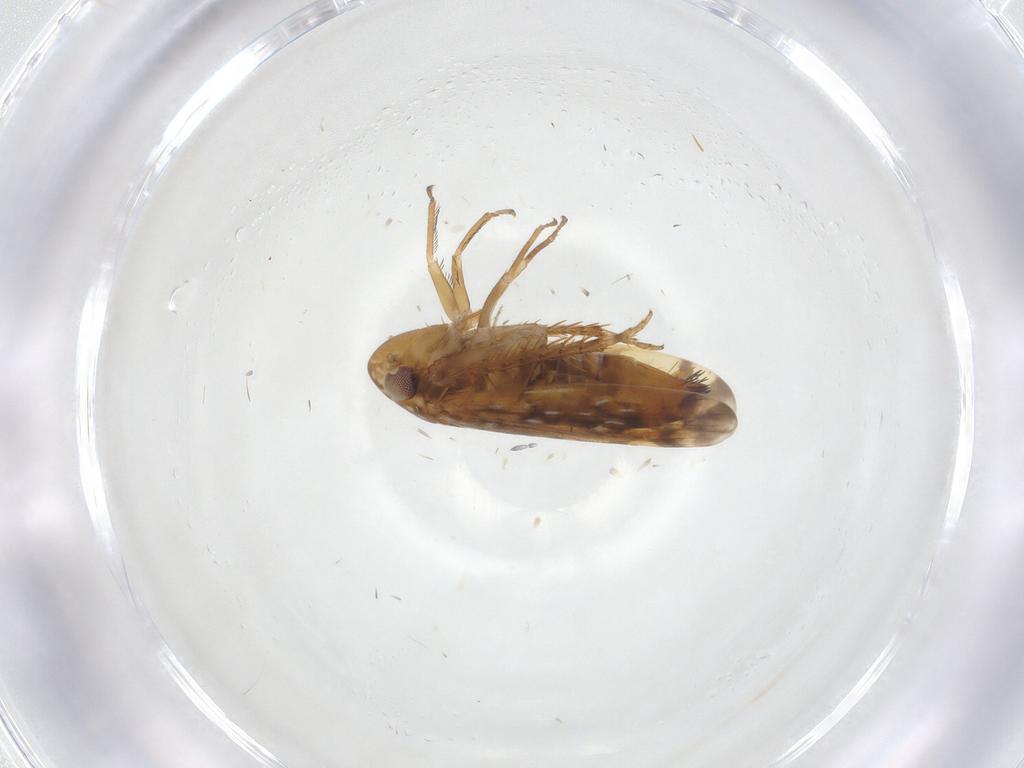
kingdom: Animalia
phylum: Arthropoda
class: Insecta
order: Hemiptera
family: Cicadellidae
